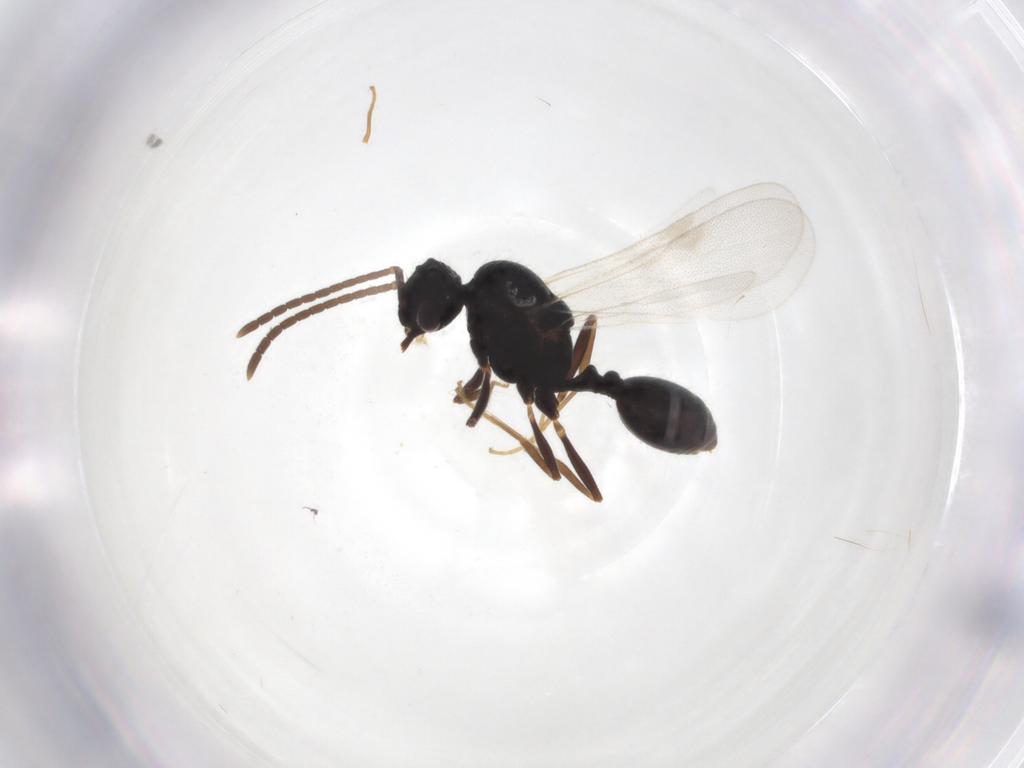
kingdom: Animalia
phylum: Arthropoda
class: Insecta
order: Hymenoptera
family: Formicidae
